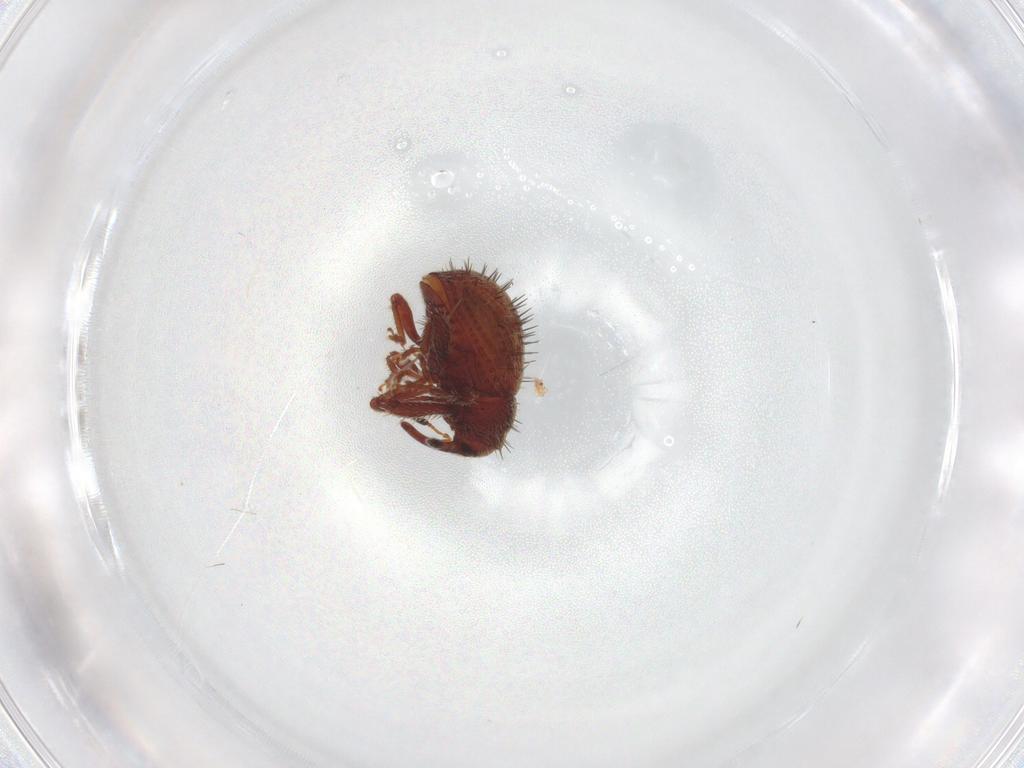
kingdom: Animalia
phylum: Arthropoda
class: Insecta
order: Coleoptera
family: Curculionidae
